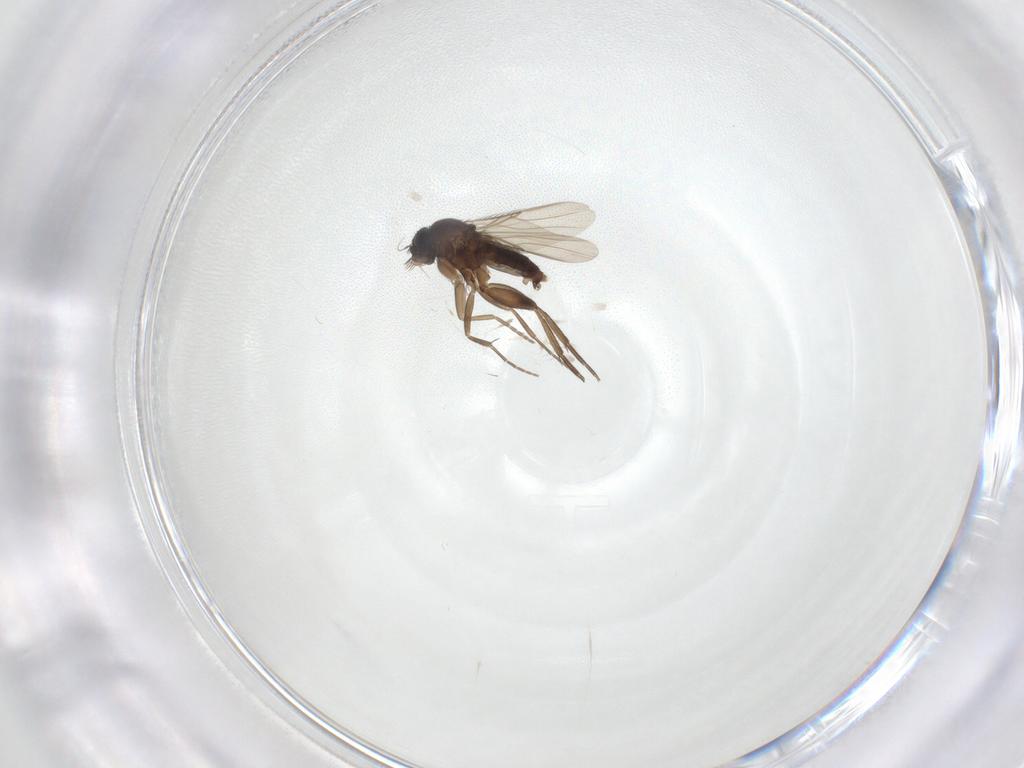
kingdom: Animalia
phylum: Arthropoda
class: Insecta
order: Diptera
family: Phoridae
